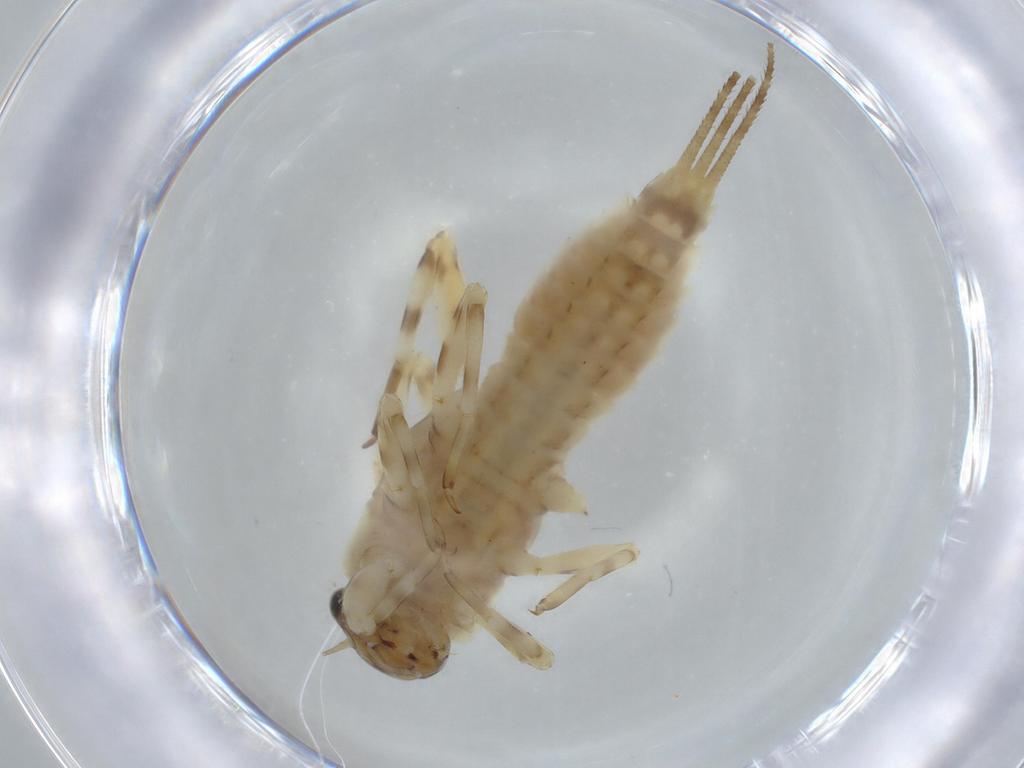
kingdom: Animalia
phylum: Arthropoda
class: Insecta
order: Ephemeroptera
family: Ephemerellidae
